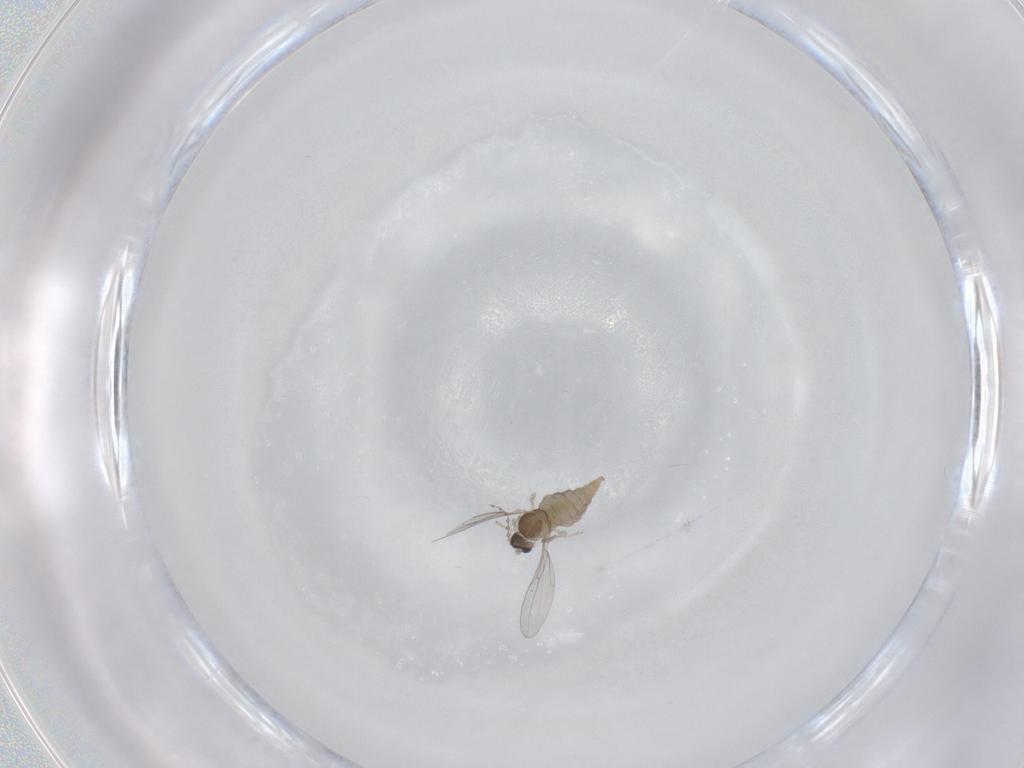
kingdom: Animalia
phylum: Arthropoda
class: Insecta
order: Diptera
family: Cecidomyiidae
